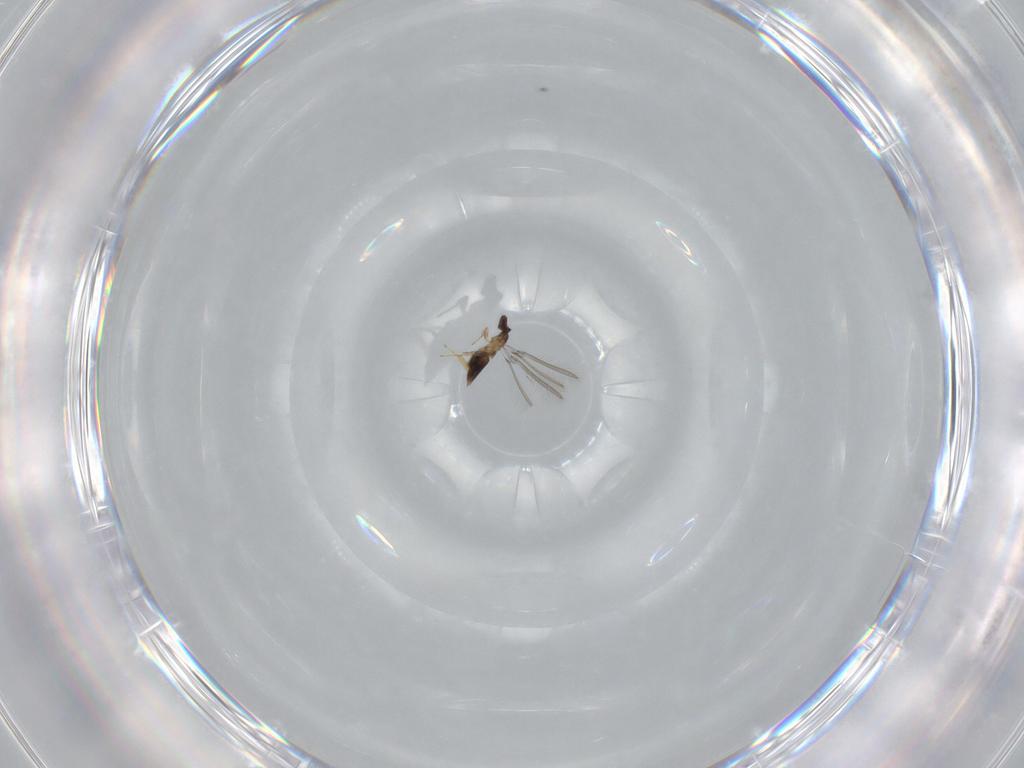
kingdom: Animalia
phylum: Arthropoda
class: Insecta
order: Hymenoptera
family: Mymaridae
